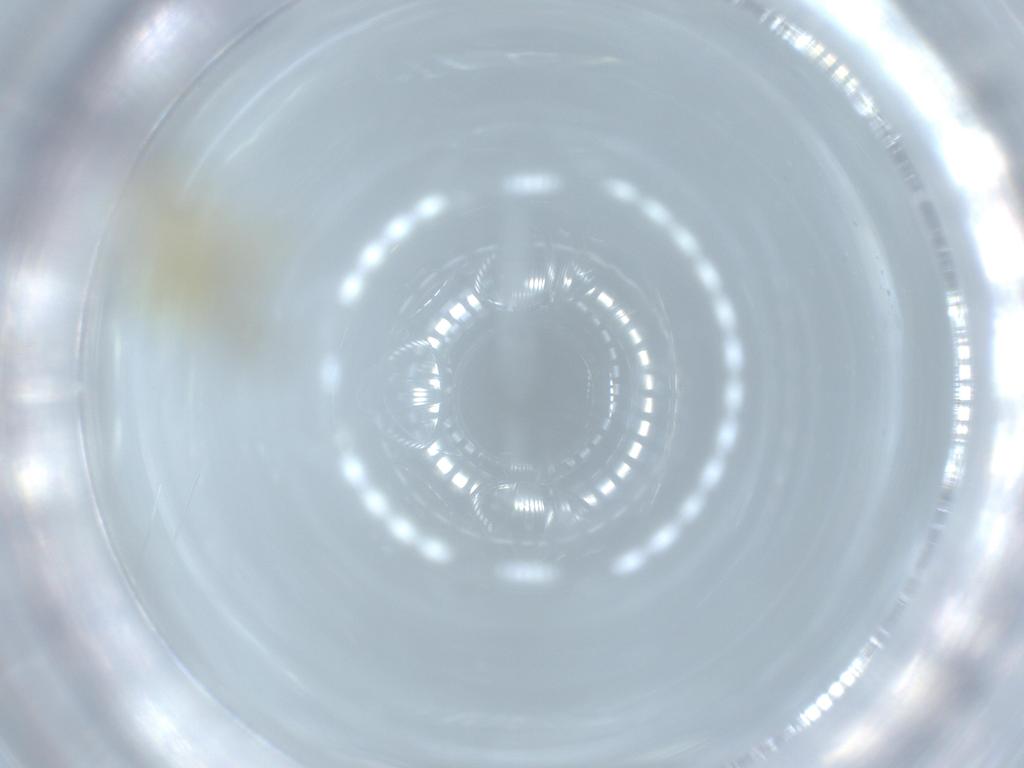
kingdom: Animalia
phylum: Arthropoda
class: Insecta
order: Diptera
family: Chironomidae
